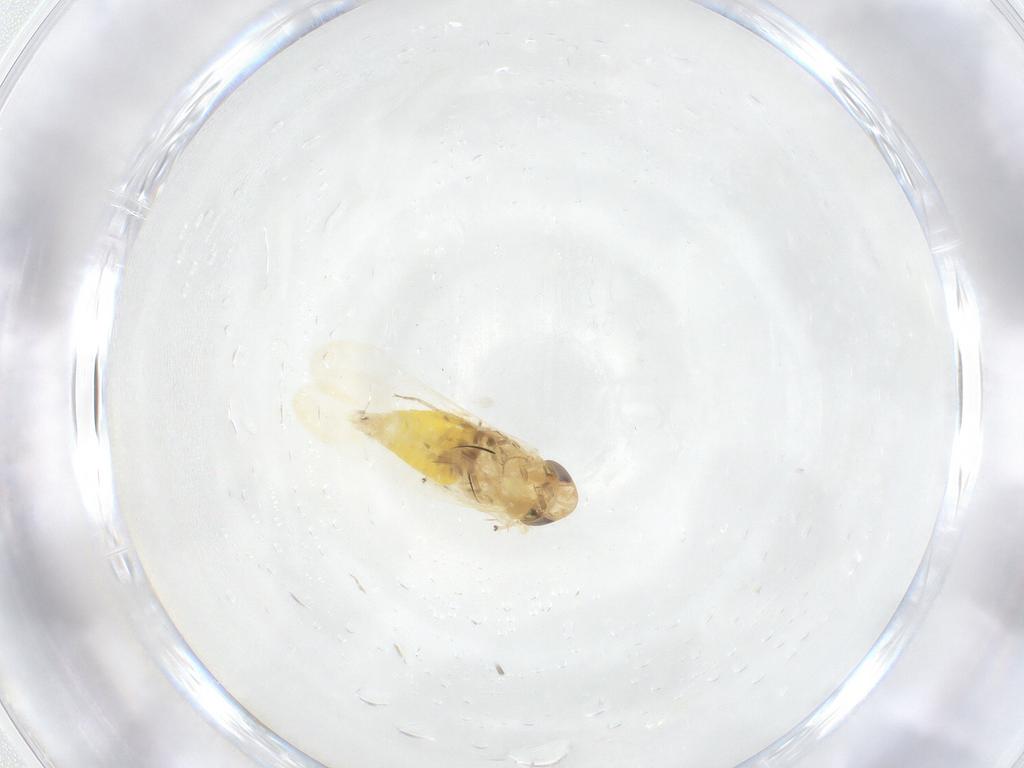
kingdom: Animalia
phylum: Arthropoda
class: Insecta
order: Hemiptera
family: Cicadellidae
